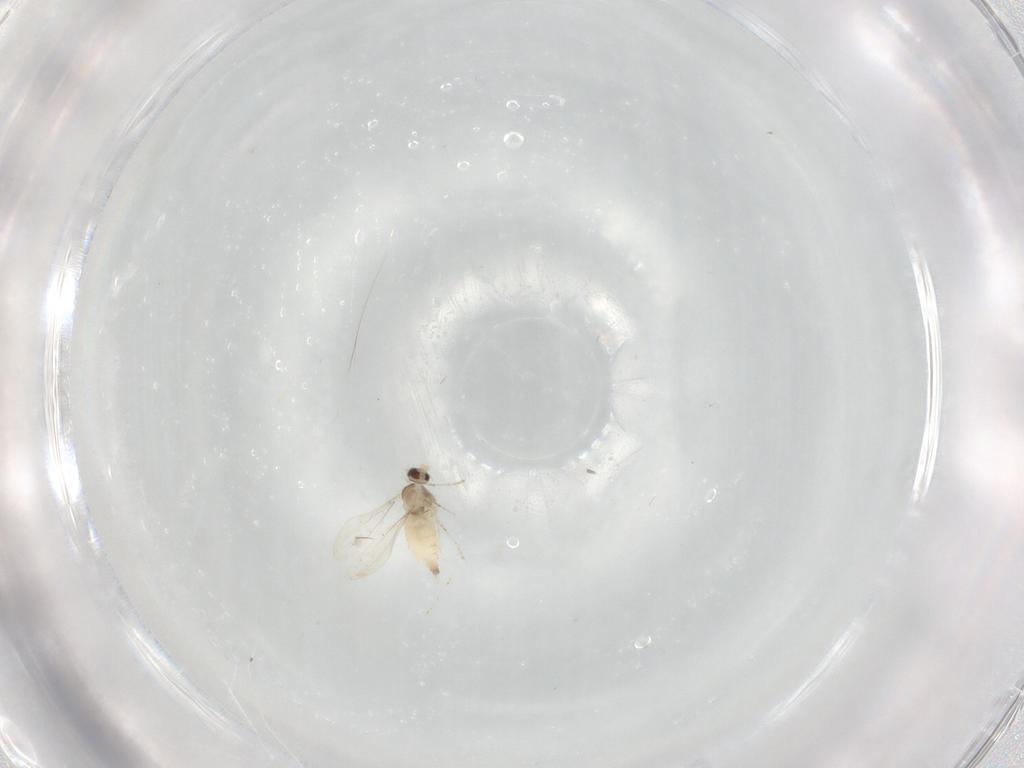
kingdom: Animalia
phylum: Arthropoda
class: Insecta
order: Diptera
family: Cecidomyiidae
